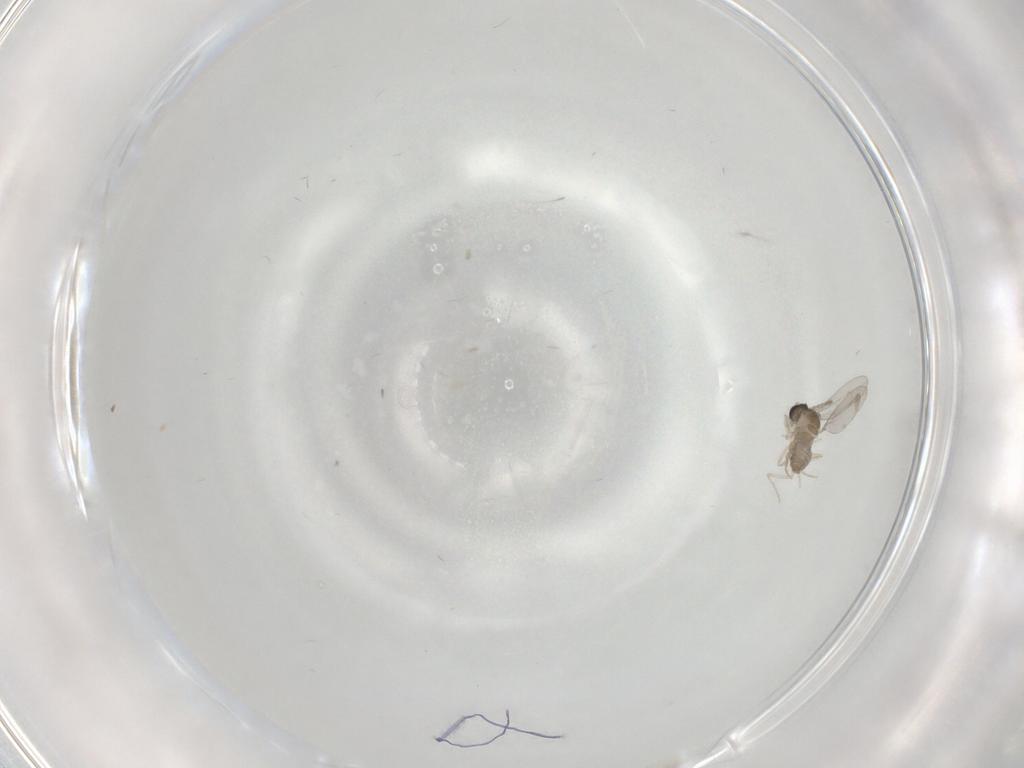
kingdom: Animalia
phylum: Arthropoda
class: Insecta
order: Diptera
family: Cecidomyiidae
